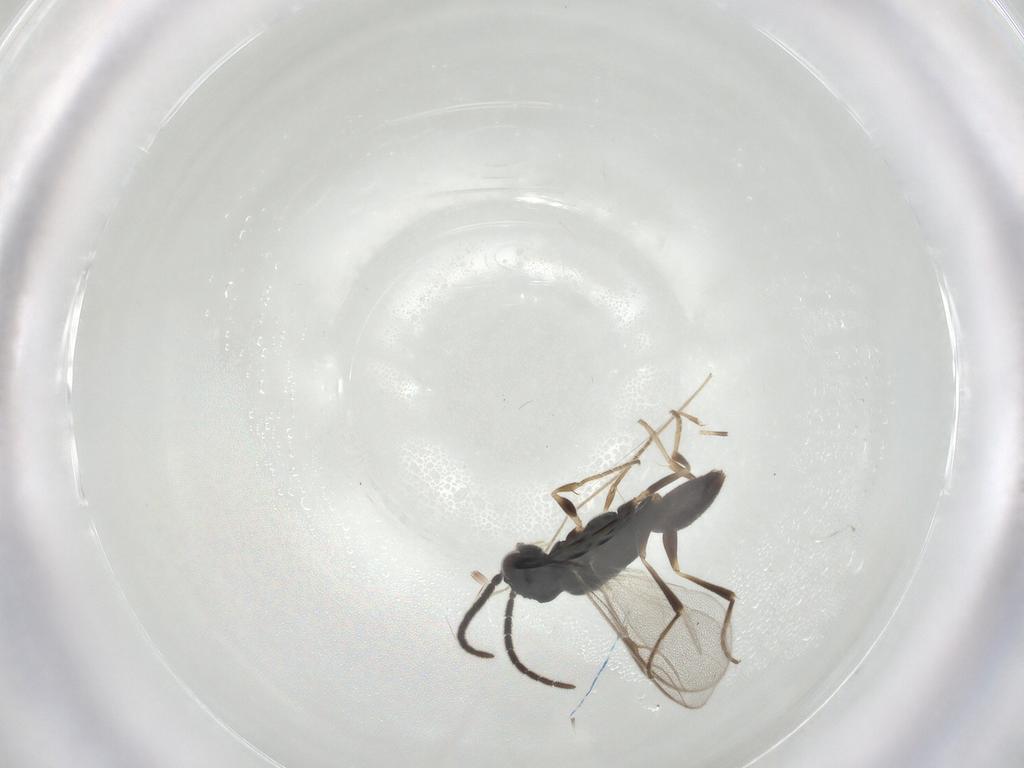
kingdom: Animalia
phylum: Arthropoda
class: Insecta
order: Hymenoptera
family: Dryinidae
